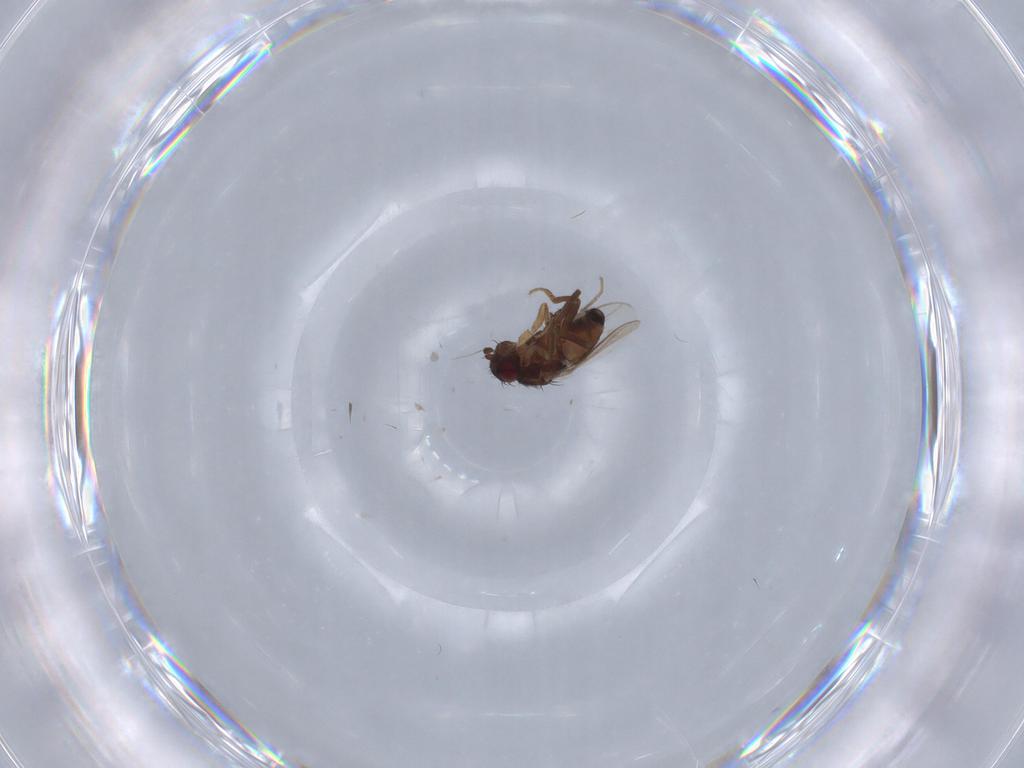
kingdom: Animalia
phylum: Arthropoda
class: Insecta
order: Diptera
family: Sphaeroceridae
